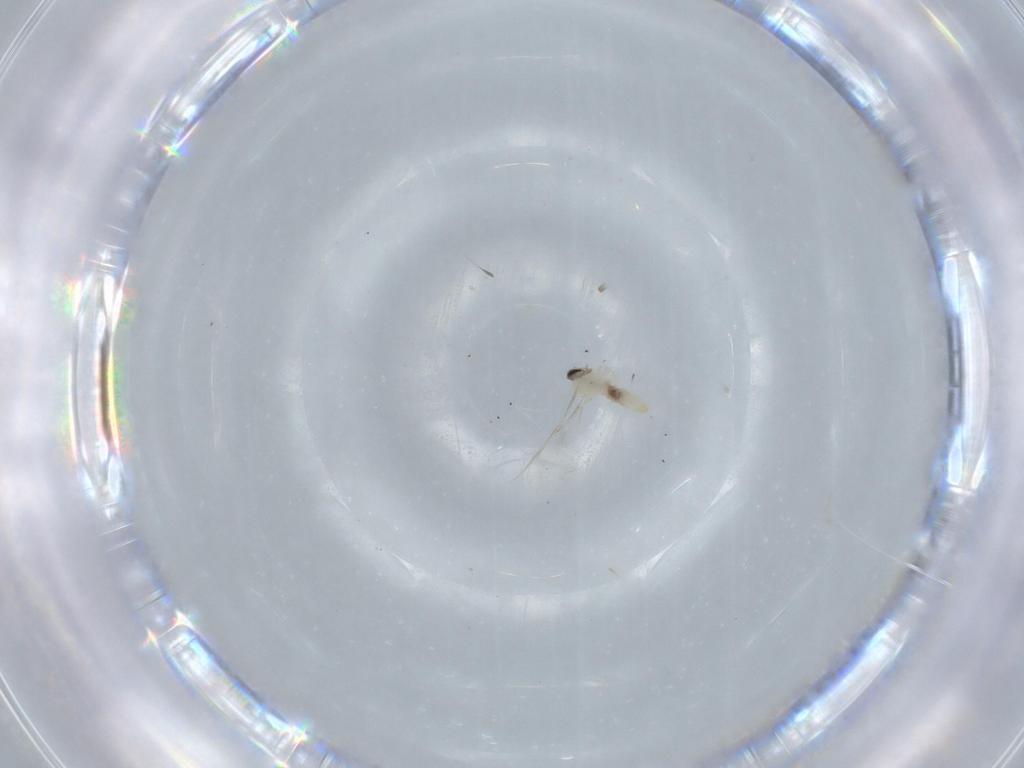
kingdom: Animalia
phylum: Arthropoda
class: Insecta
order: Diptera
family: Cecidomyiidae
